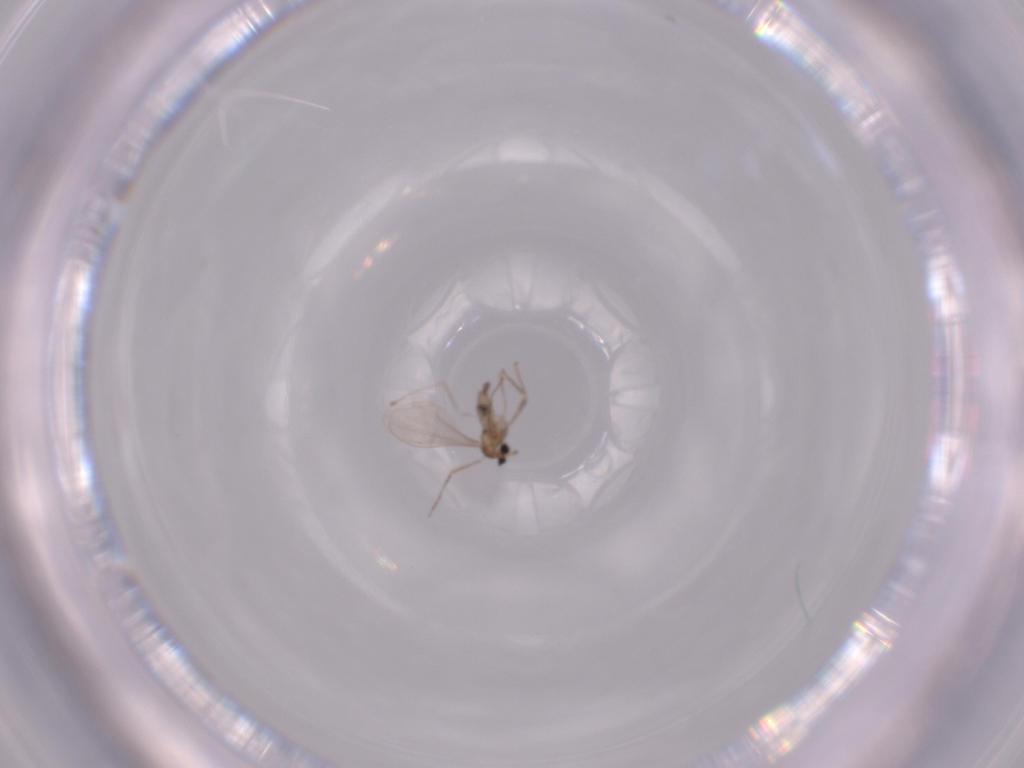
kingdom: Animalia
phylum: Arthropoda
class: Insecta
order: Diptera
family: Cecidomyiidae
